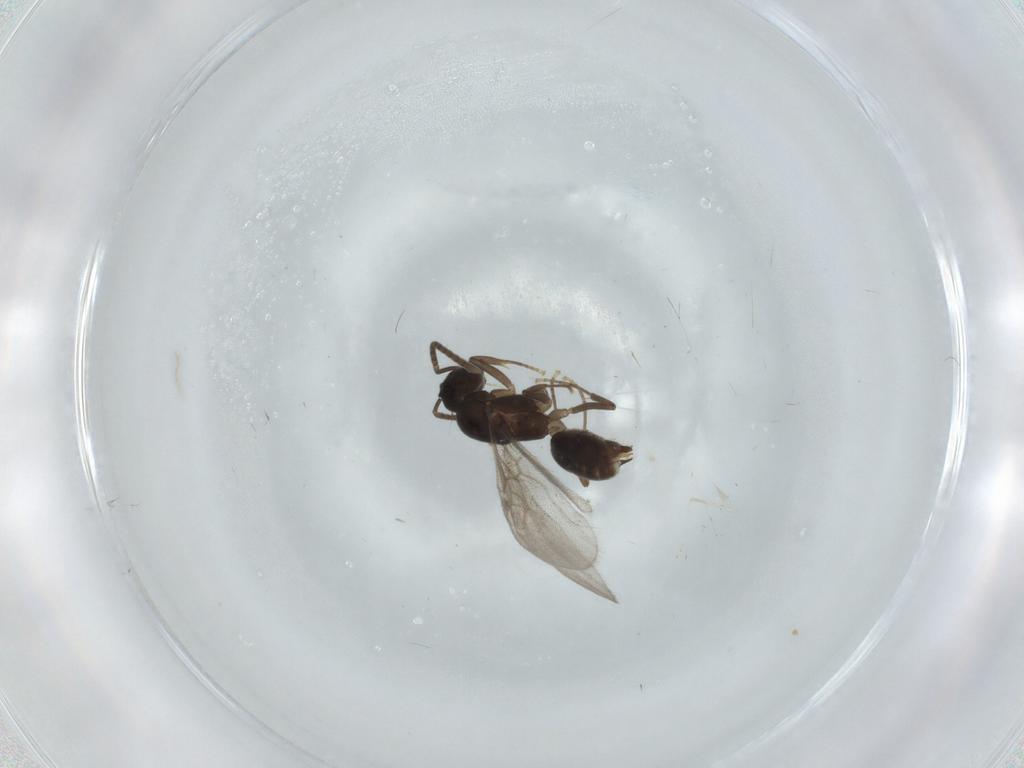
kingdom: Animalia
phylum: Arthropoda
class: Insecta
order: Hymenoptera
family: Formicidae
